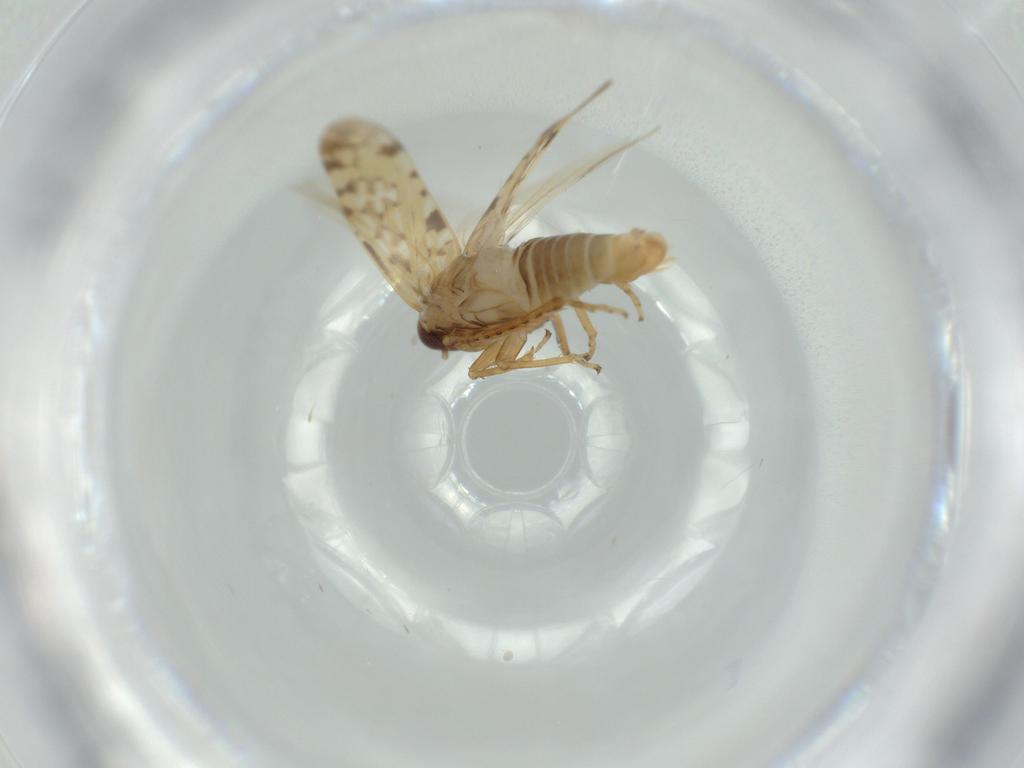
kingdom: Animalia
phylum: Arthropoda
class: Insecta
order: Hemiptera
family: Cicadellidae
